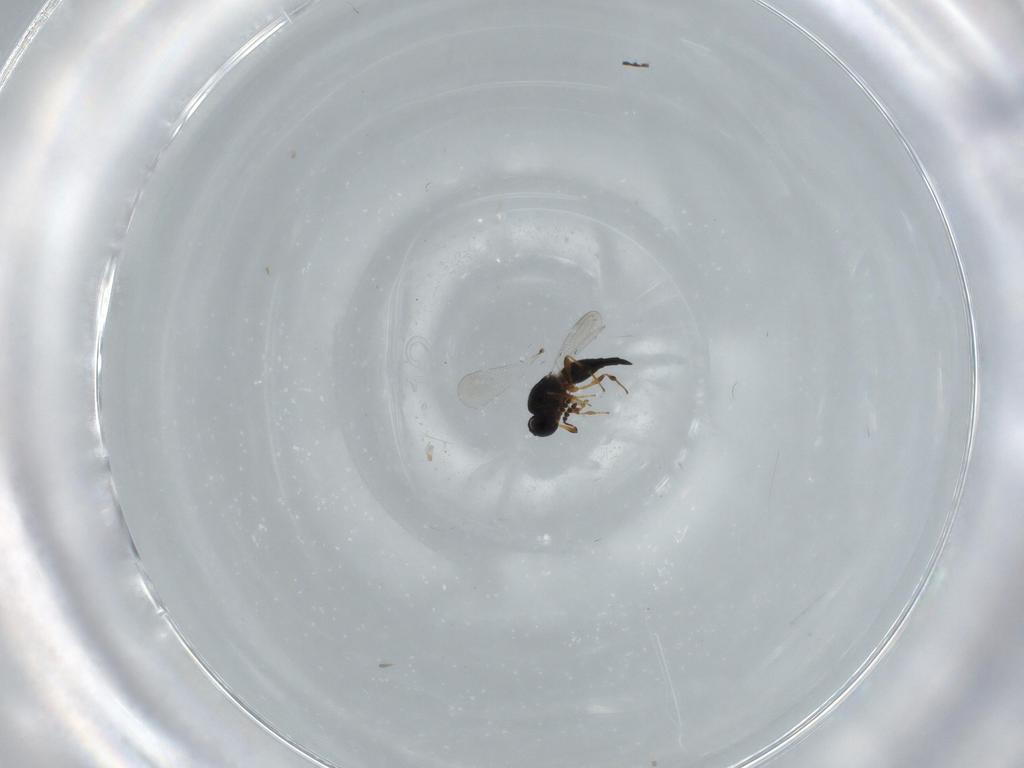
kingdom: Animalia
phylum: Arthropoda
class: Insecta
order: Hymenoptera
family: Platygastridae
